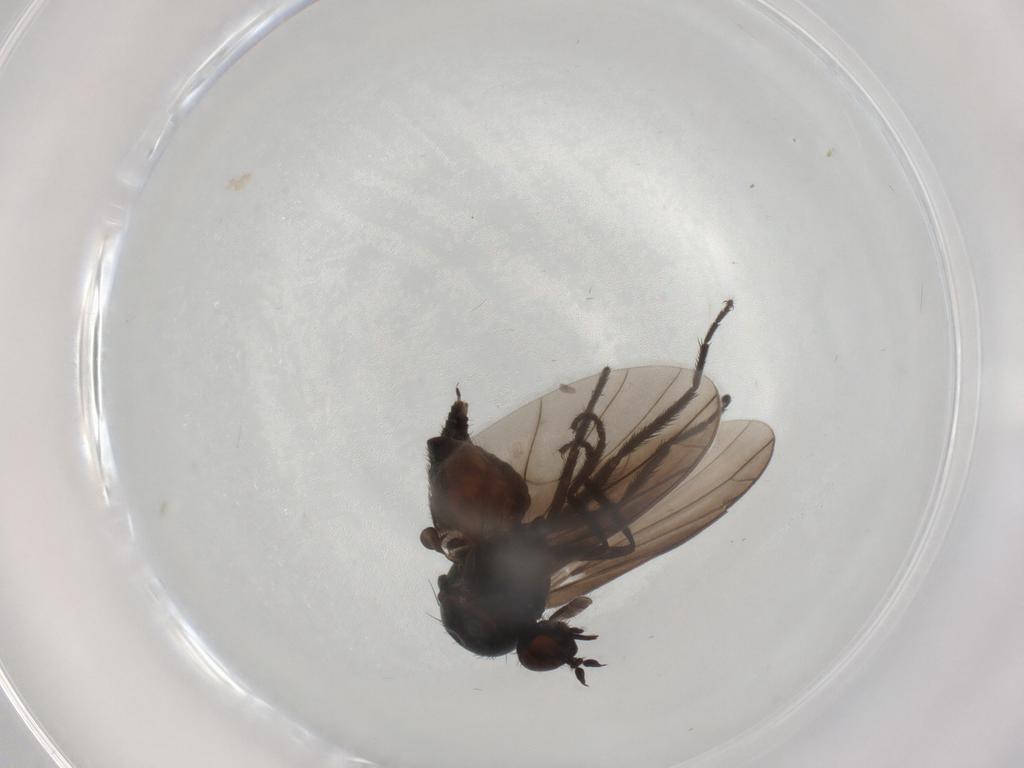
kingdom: Animalia
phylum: Arthropoda
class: Insecta
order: Diptera
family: Empididae
